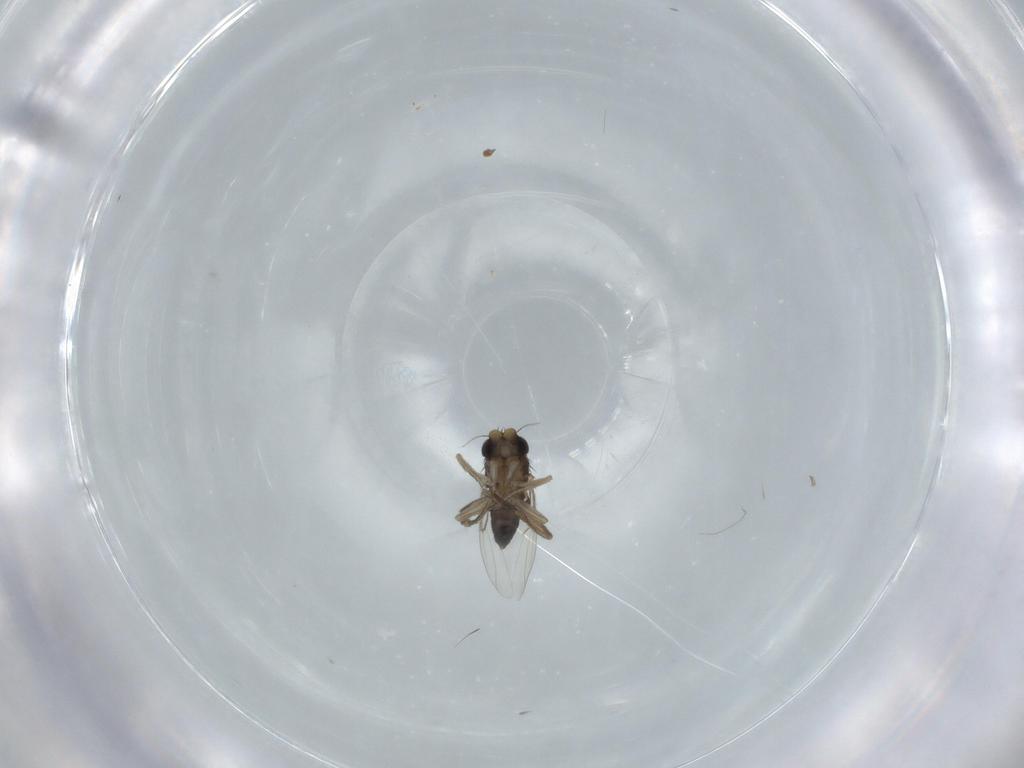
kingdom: Animalia
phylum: Arthropoda
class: Insecta
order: Diptera
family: Phoridae
